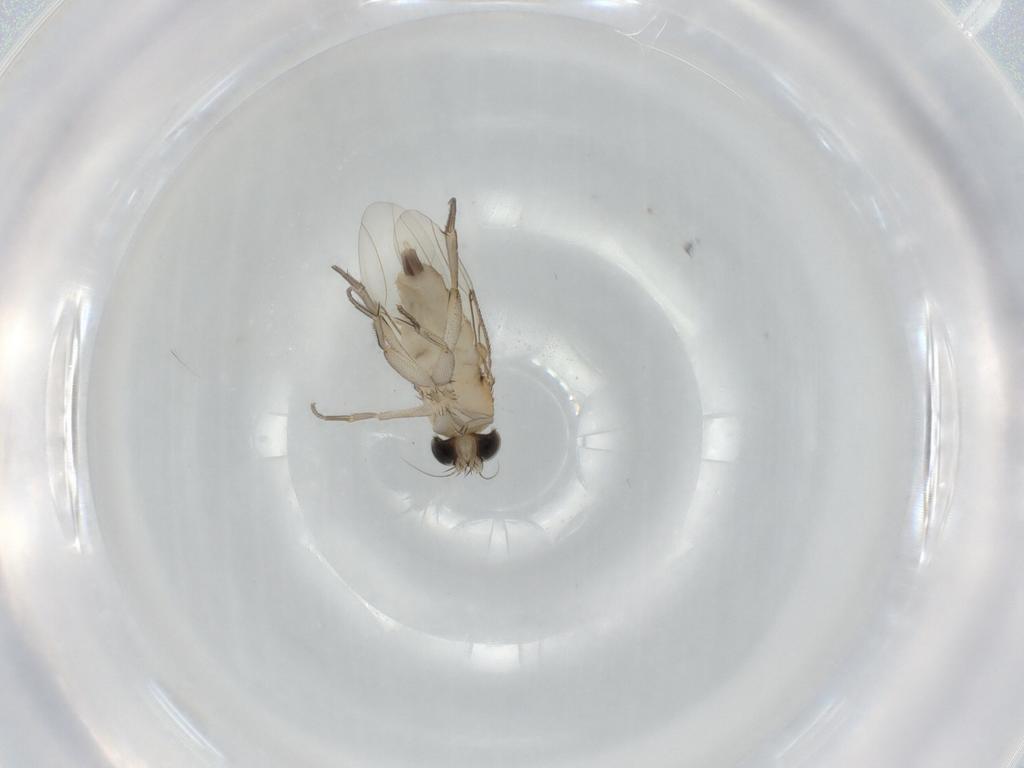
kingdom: Animalia
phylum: Arthropoda
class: Insecta
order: Diptera
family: Phoridae
